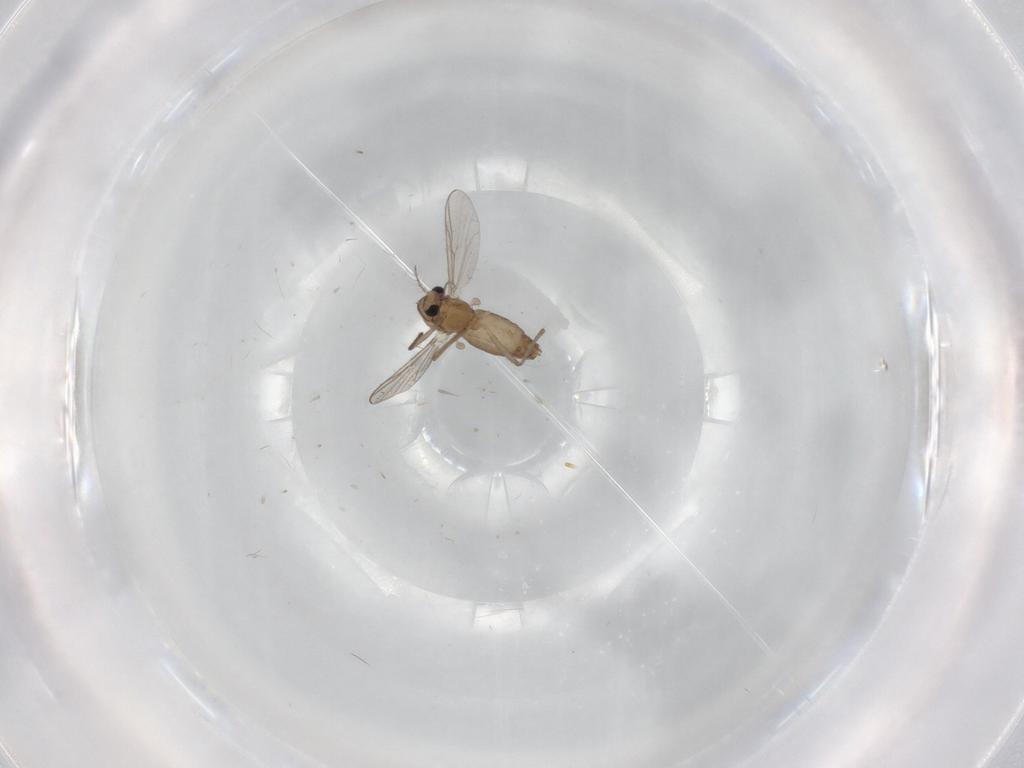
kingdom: Animalia
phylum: Arthropoda
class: Insecta
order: Diptera
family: Chironomidae
